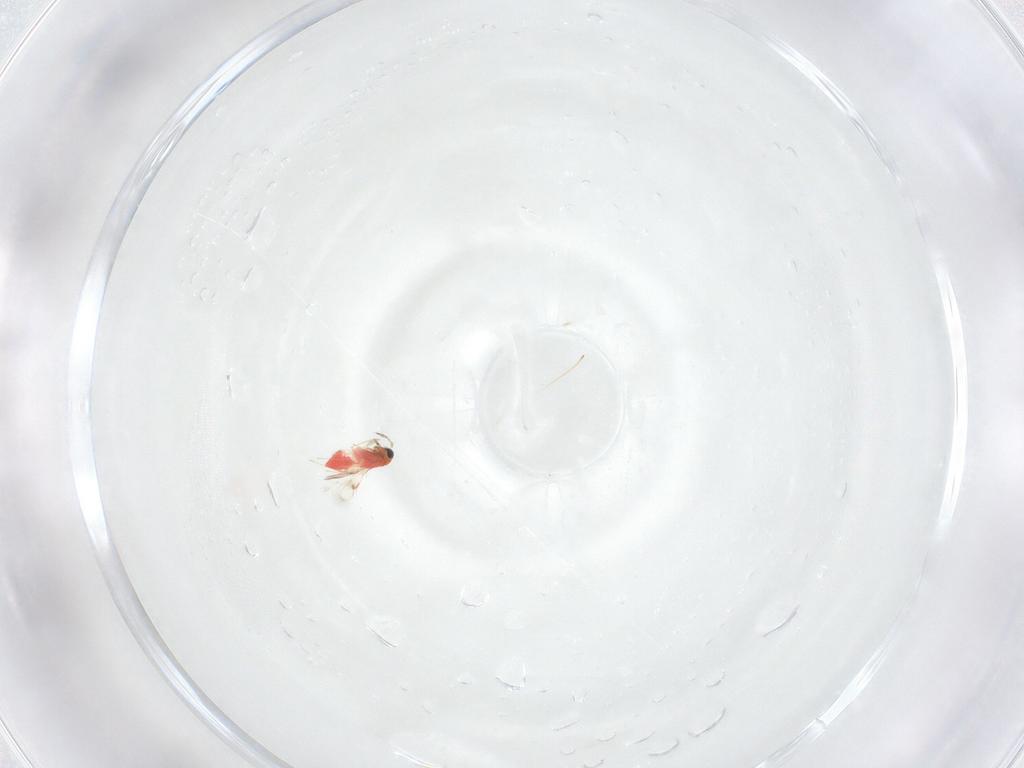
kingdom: Animalia
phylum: Arthropoda
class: Insecta
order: Hymenoptera
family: Trichogrammatidae
